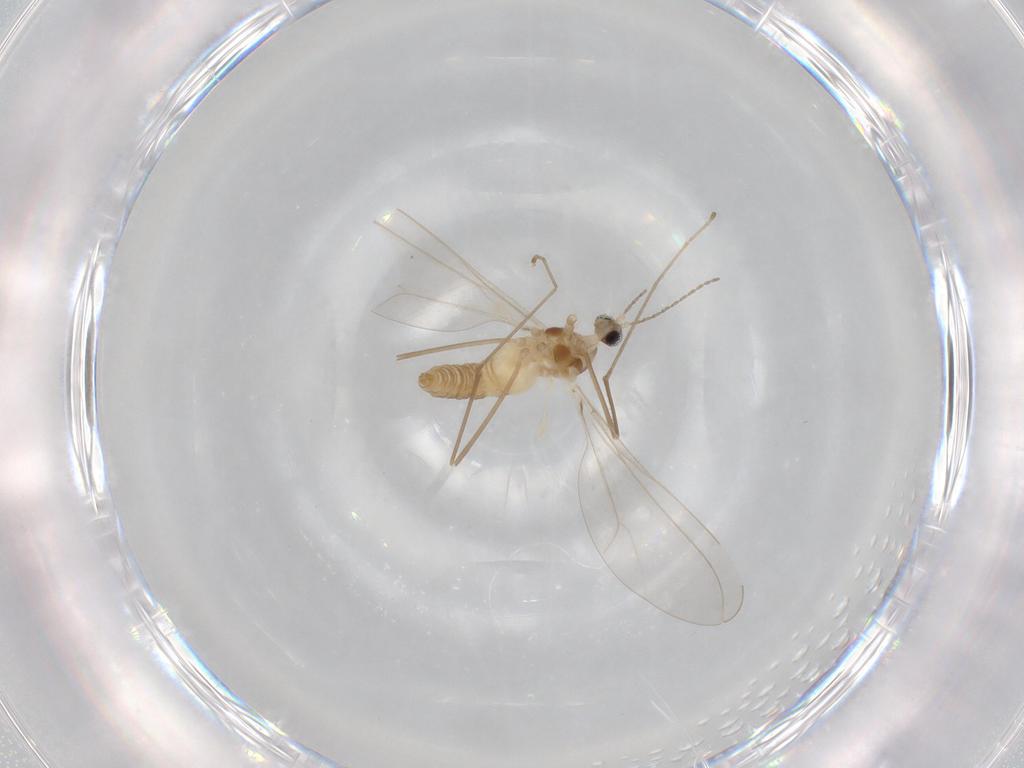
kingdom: Animalia
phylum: Arthropoda
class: Insecta
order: Diptera
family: Cecidomyiidae
